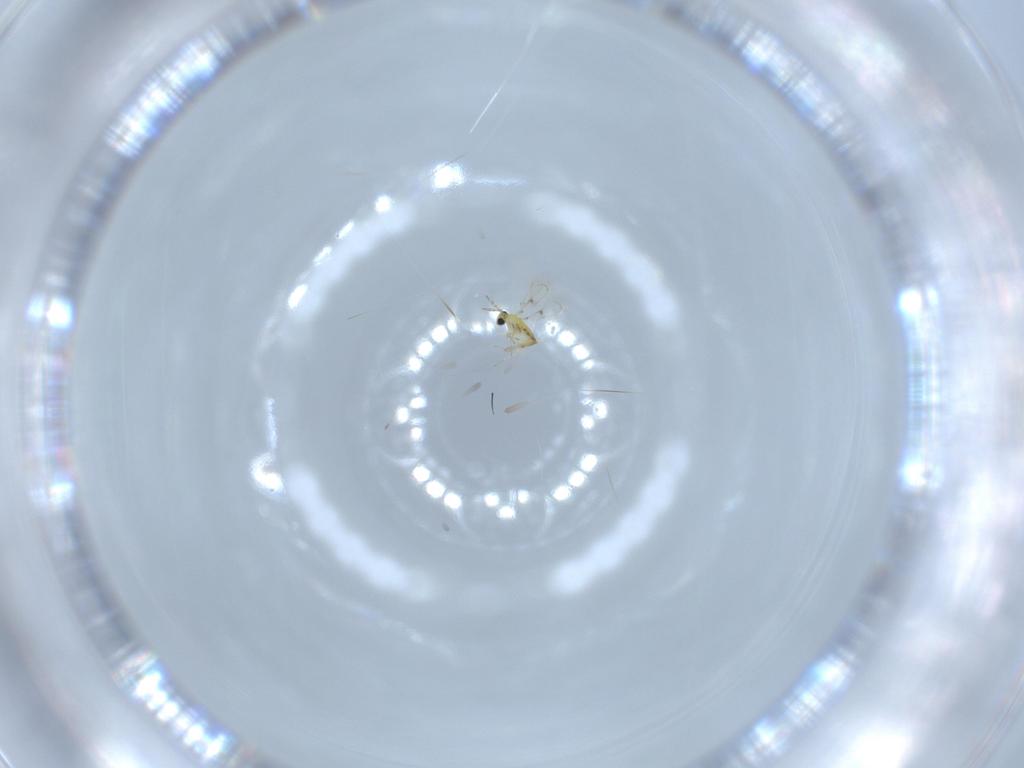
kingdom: Animalia
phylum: Arthropoda
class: Insecta
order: Hymenoptera
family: Trichogrammatidae
